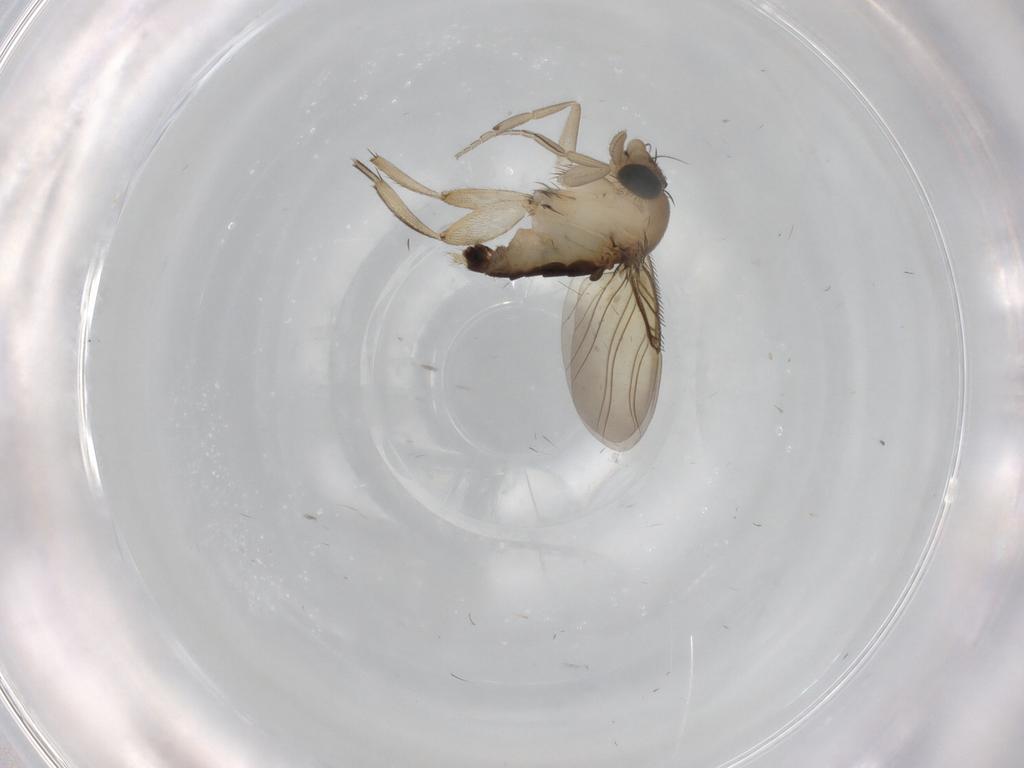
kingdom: Animalia
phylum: Arthropoda
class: Insecta
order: Diptera
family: Phoridae
